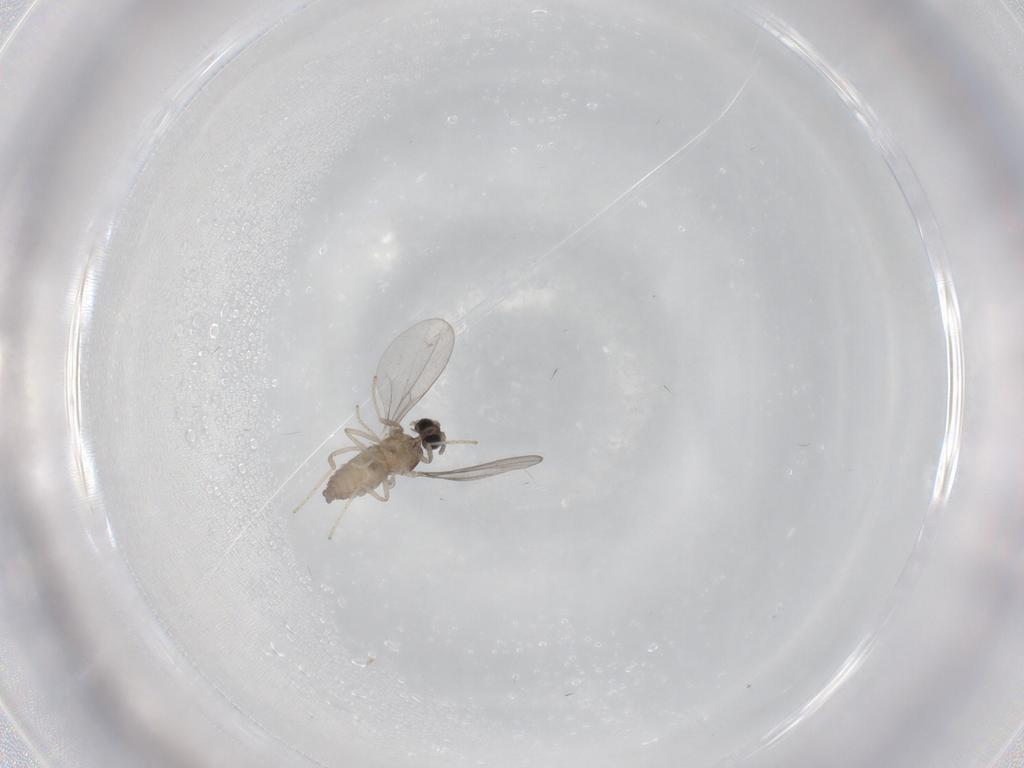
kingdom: Animalia
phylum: Arthropoda
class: Insecta
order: Diptera
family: Cecidomyiidae
